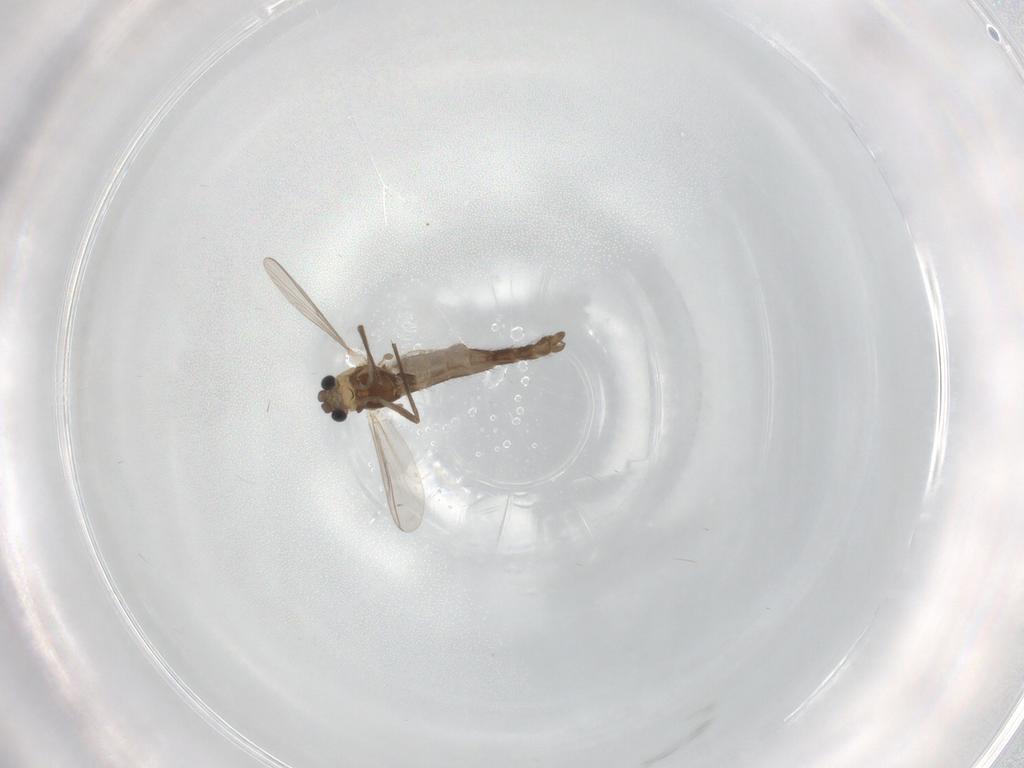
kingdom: Animalia
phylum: Arthropoda
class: Insecta
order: Diptera
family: Chironomidae
